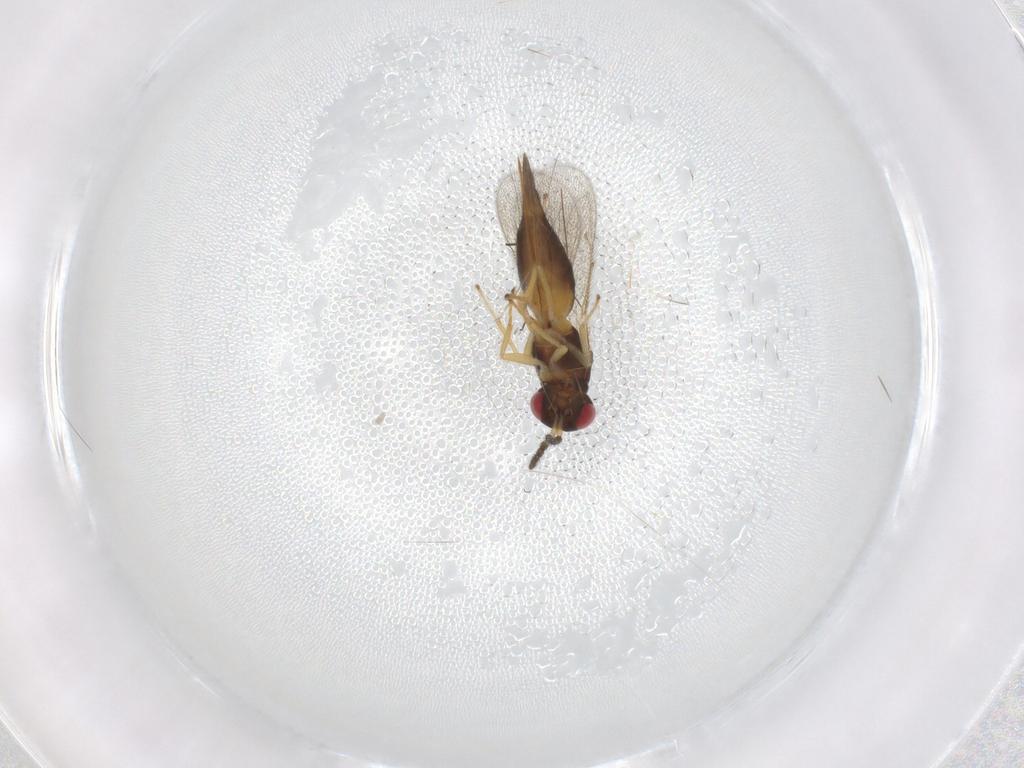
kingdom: Animalia
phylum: Arthropoda
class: Insecta
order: Hymenoptera
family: Eulophidae
